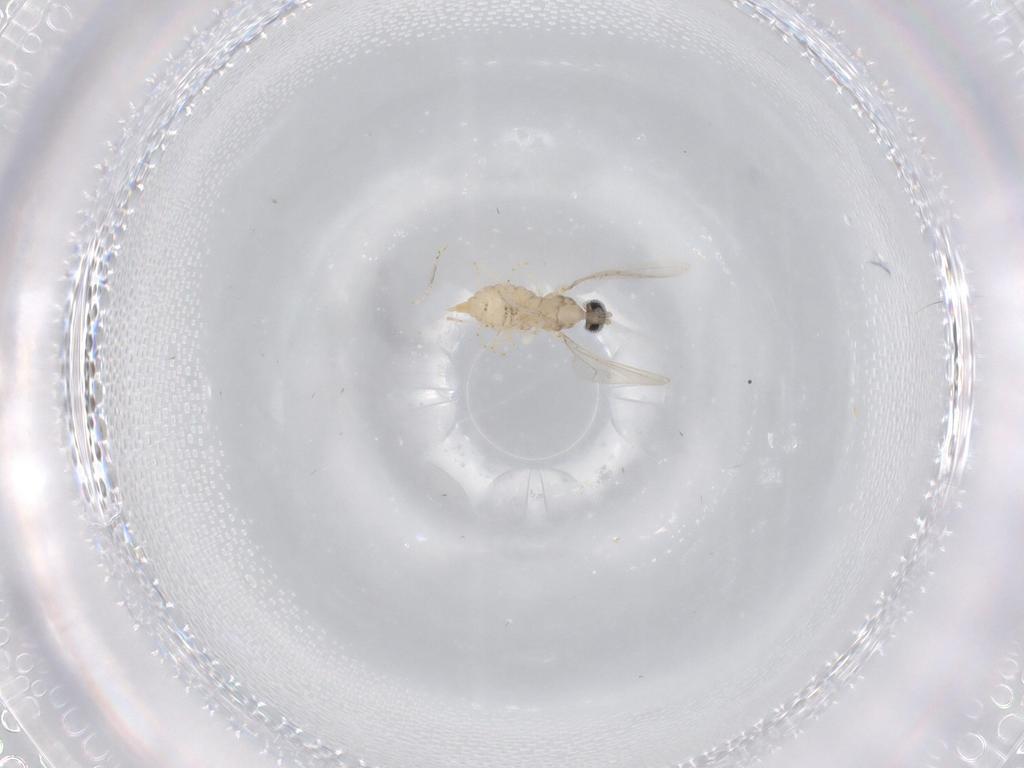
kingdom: Animalia
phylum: Arthropoda
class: Insecta
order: Diptera
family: Cecidomyiidae
